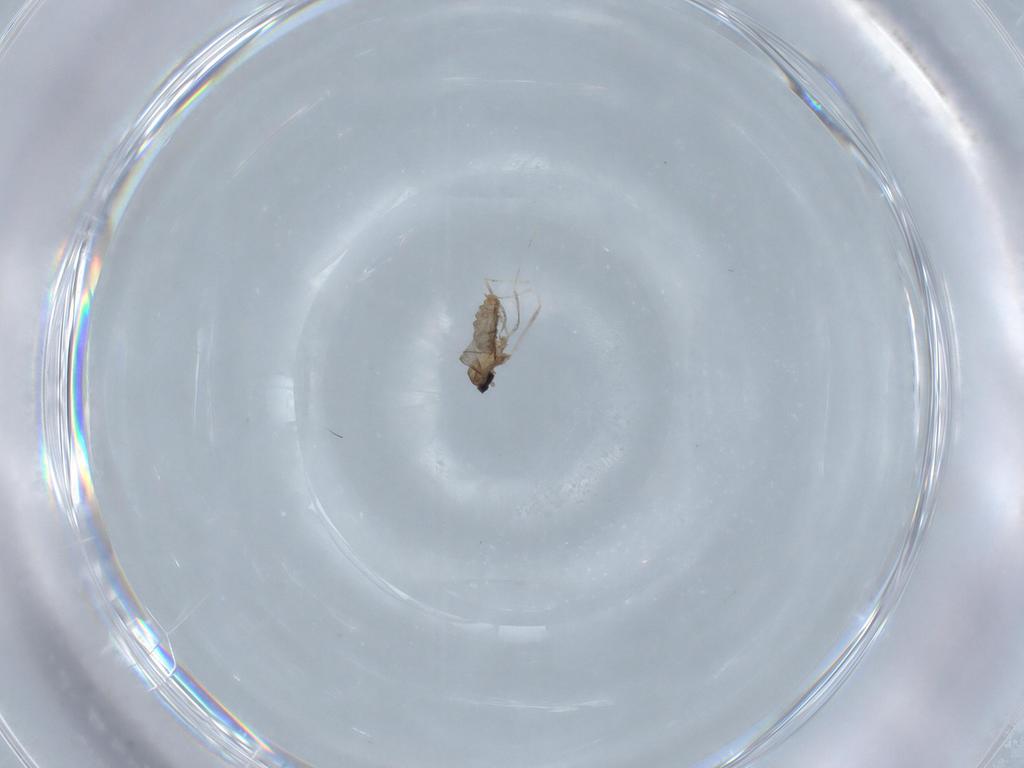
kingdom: Animalia
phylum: Arthropoda
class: Insecta
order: Diptera
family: Cecidomyiidae
